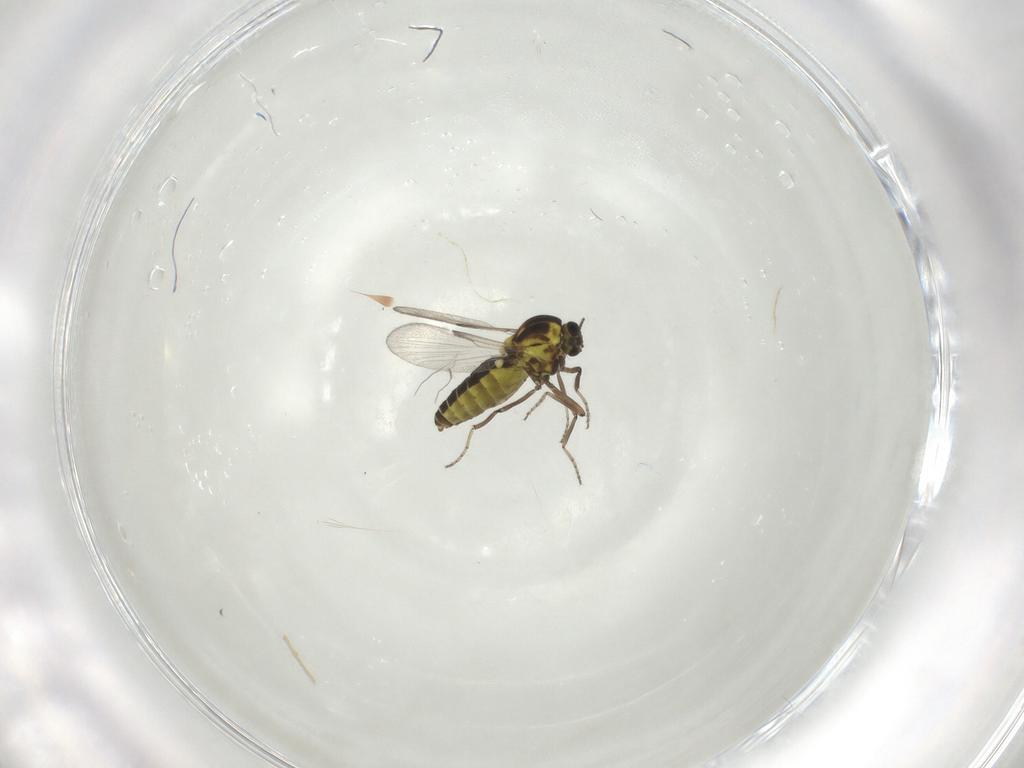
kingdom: Animalia
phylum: Arthropoda
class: Insecta
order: Diptera
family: Ceratopogonidae
